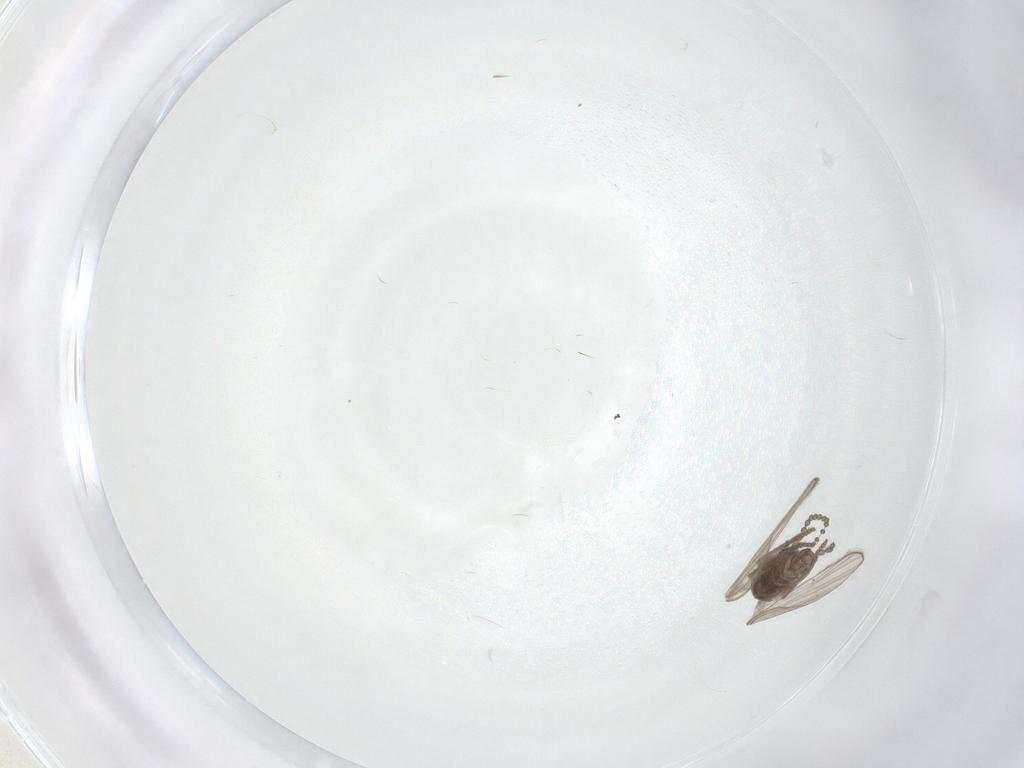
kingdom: Animalia
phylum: Arthropoda
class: Insecta
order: Diptera
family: Psychodidae
